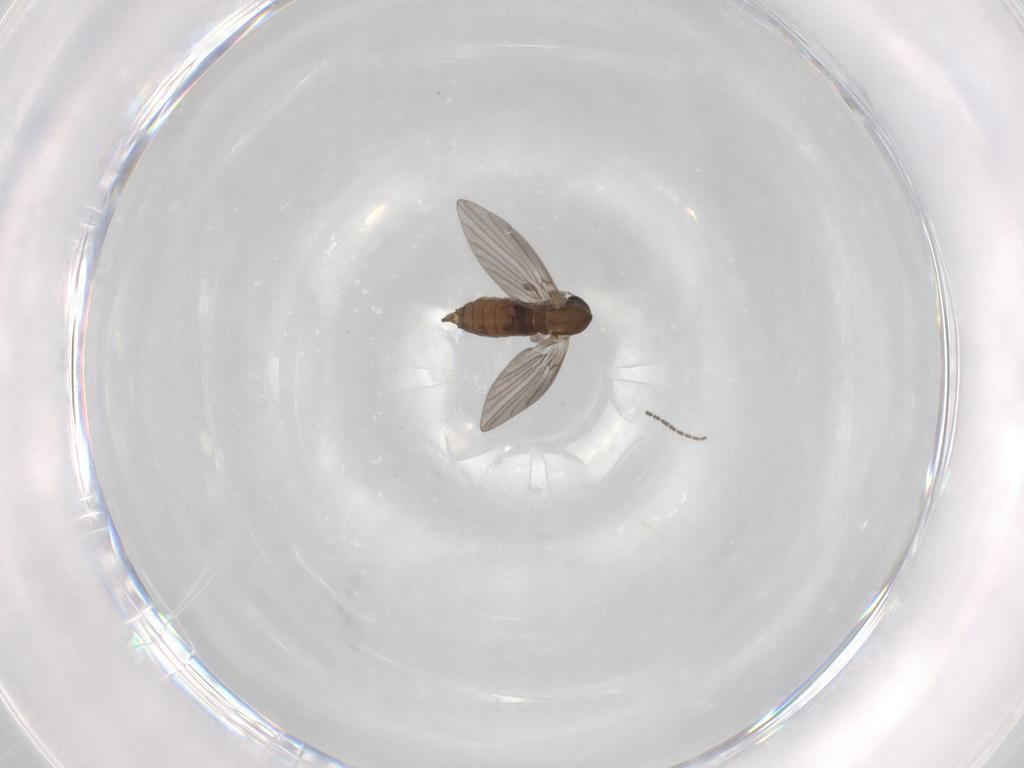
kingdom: Animalia
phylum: Arthropoda
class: Insecta
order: Diptera
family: Psychodidae
